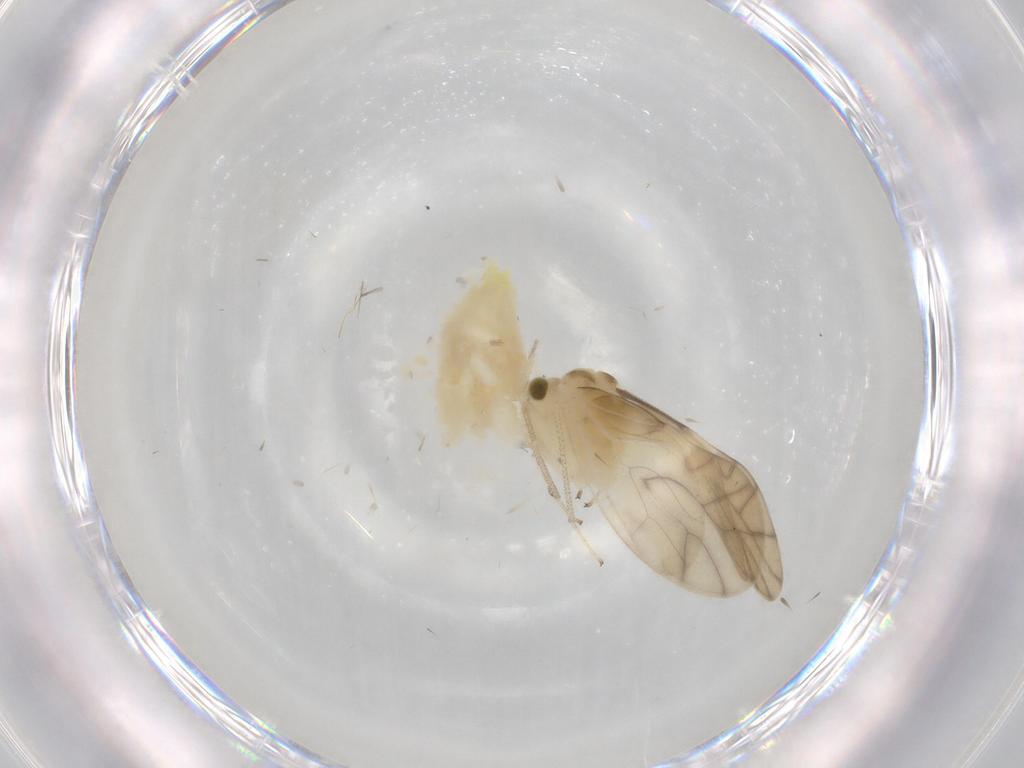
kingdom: Animalia
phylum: Arthropoda
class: Insecta
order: Psocodea
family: Caeciliusidae
